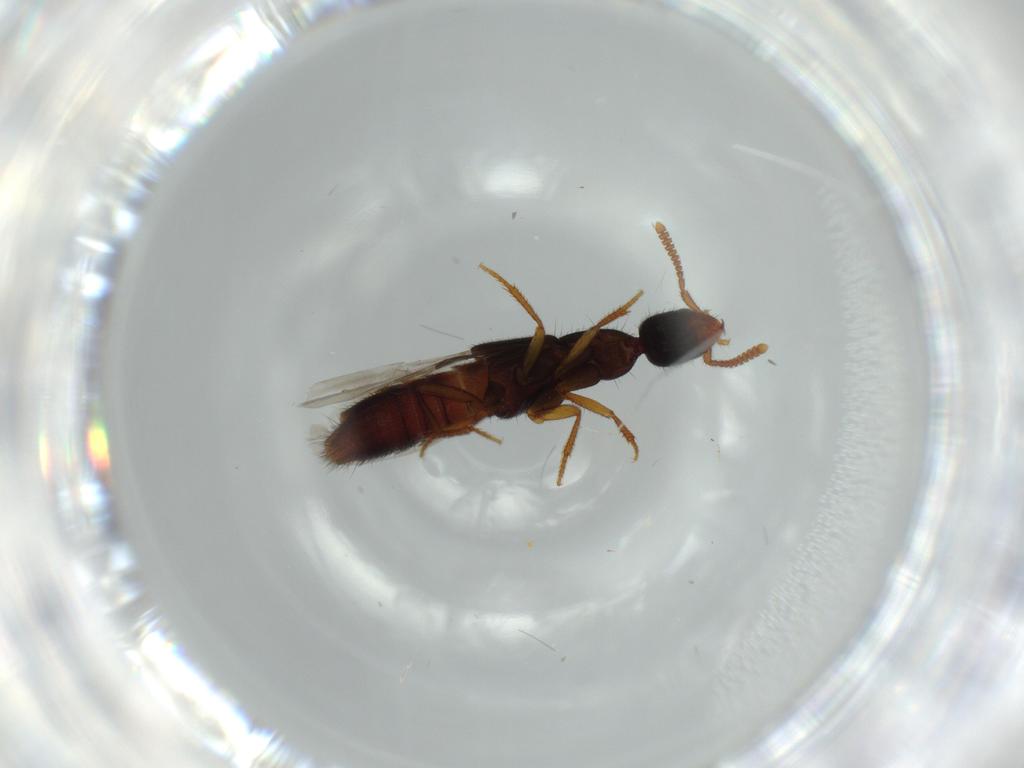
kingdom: Animalia
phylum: Arthropoda
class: Insecta
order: Coleoptera
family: Staphylinidae
